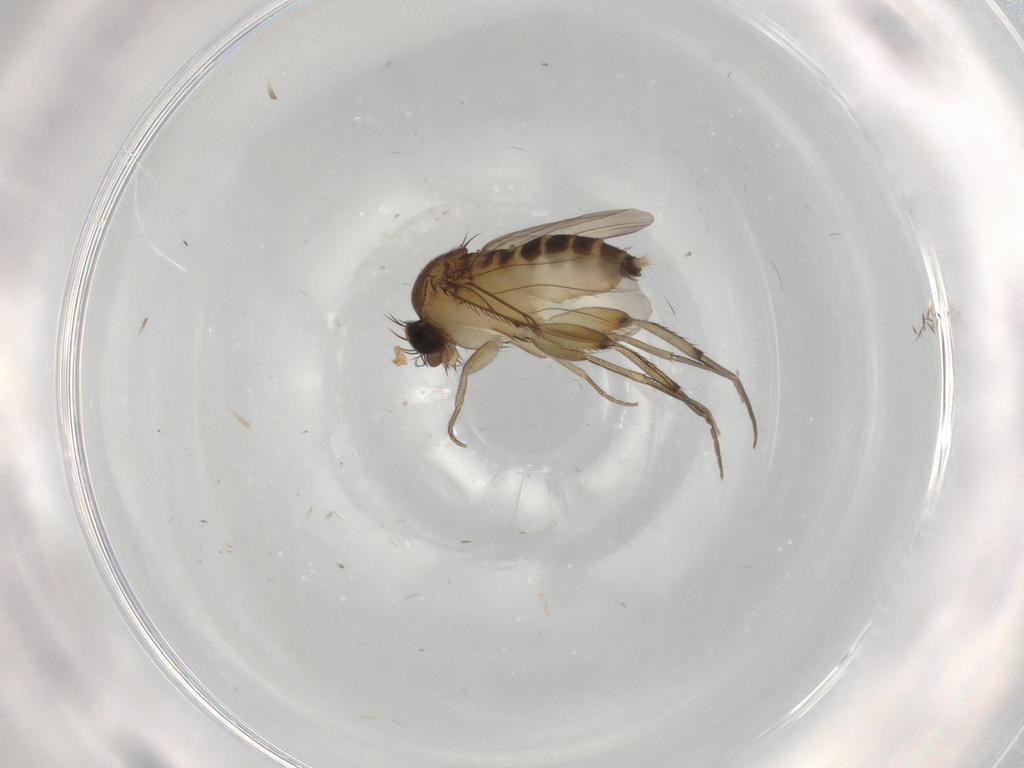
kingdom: Animalia
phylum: Arthropoda
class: Insecta
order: Diptera
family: Phoridae
